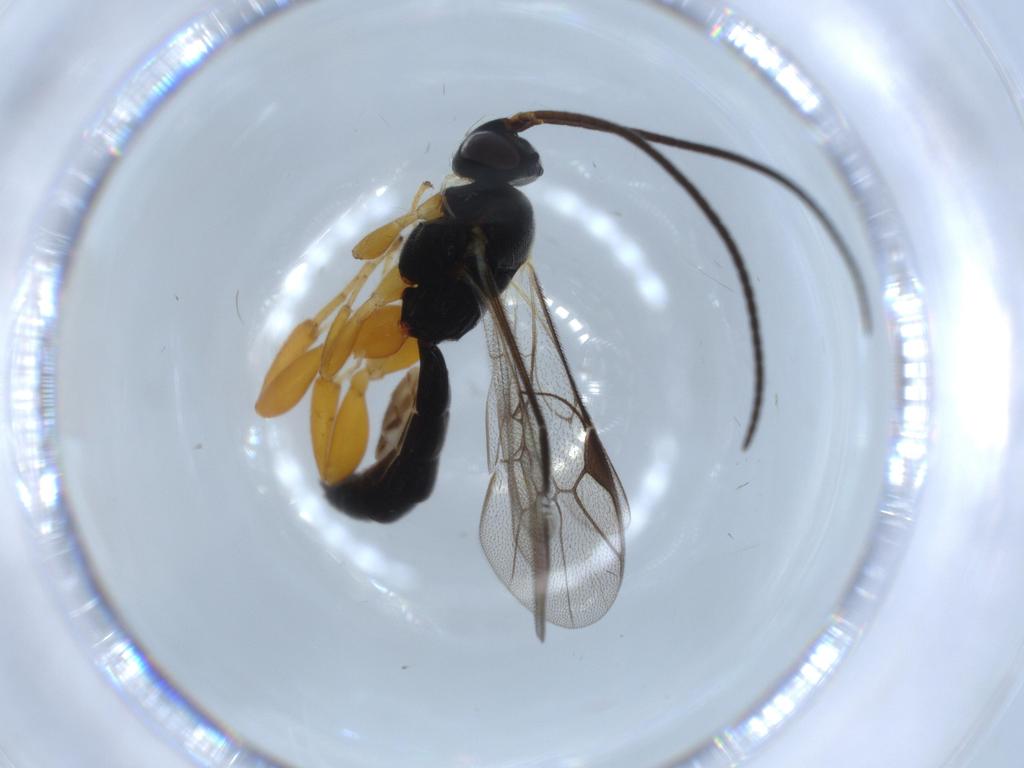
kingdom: Animalia
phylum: Arthropoda
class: Insecta
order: Hymenoptera
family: Ichneumonidae
